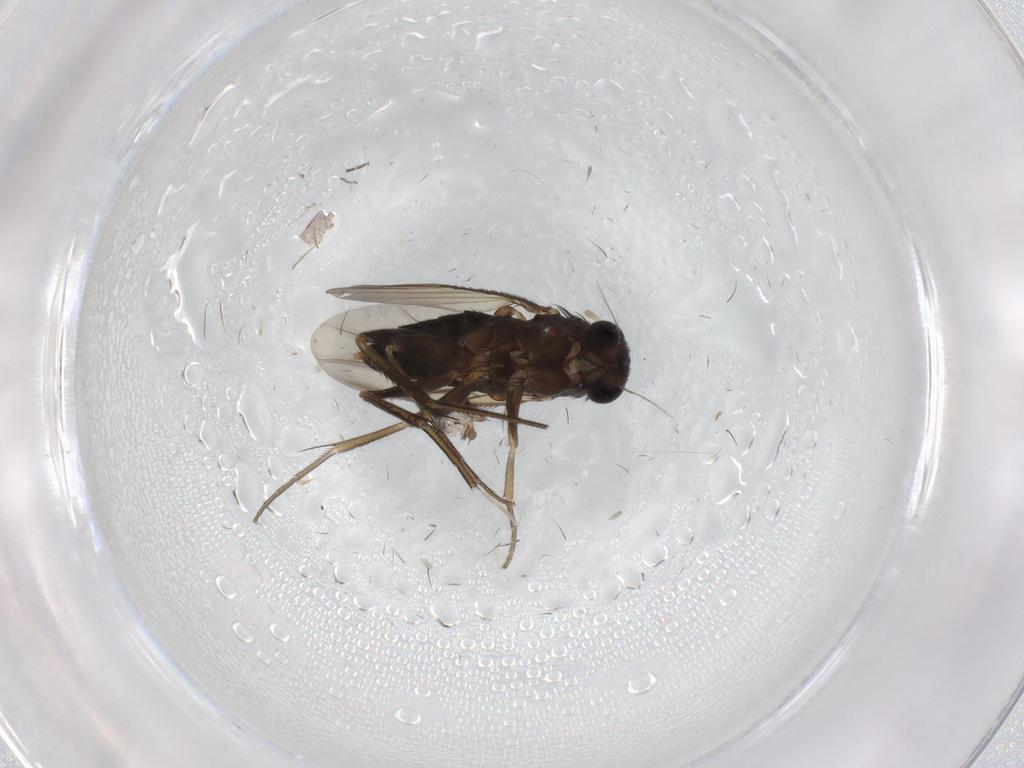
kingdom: Animalia
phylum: Arthropoda
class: Insecta
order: Diptera
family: Phoridae
